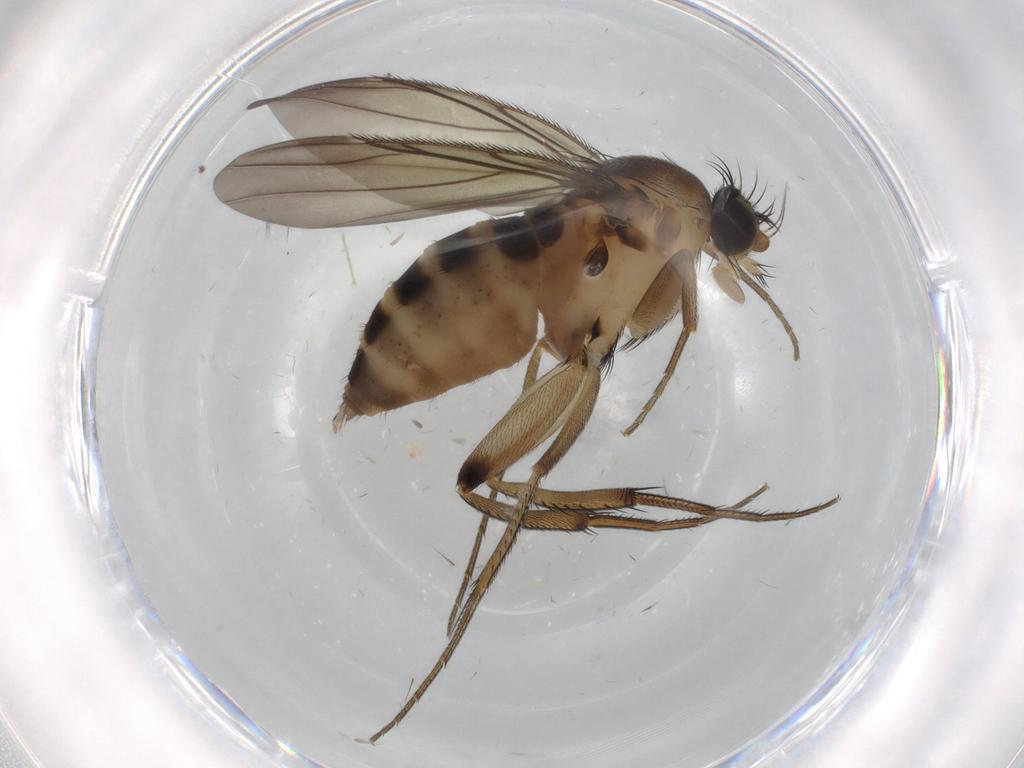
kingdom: Animalia
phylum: Arthropoda
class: Insecta
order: Diptera
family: Phoridae
